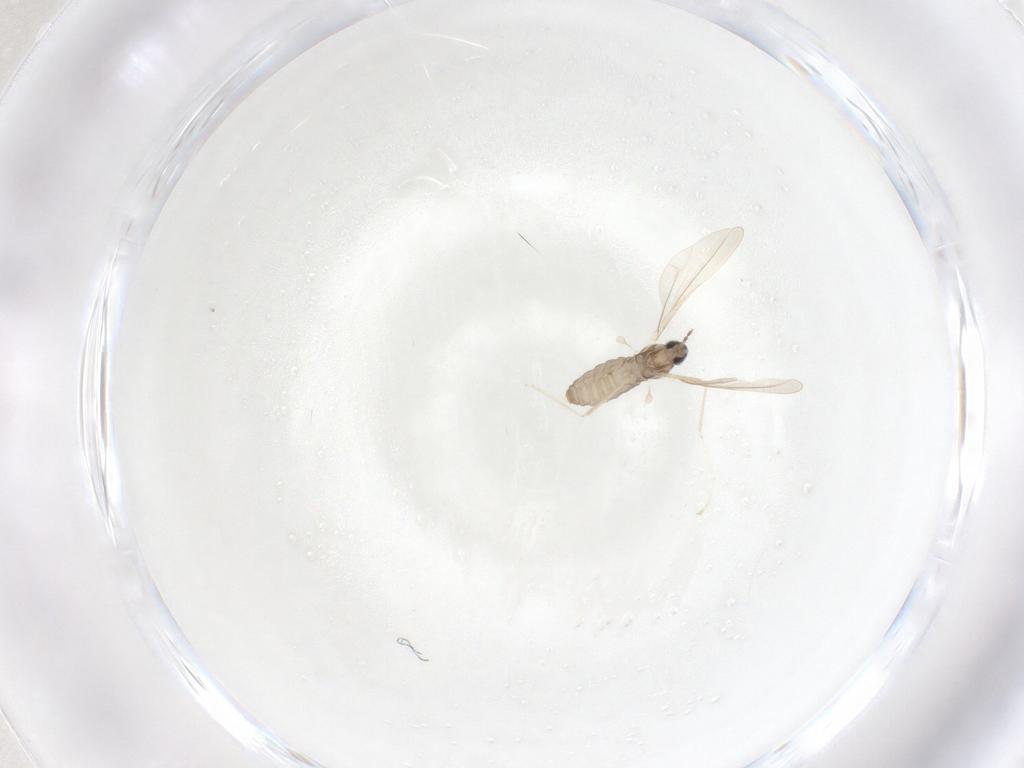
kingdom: Animalia
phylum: Arthropoda
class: Insecta
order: Diptera
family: Cecidomyiidae
